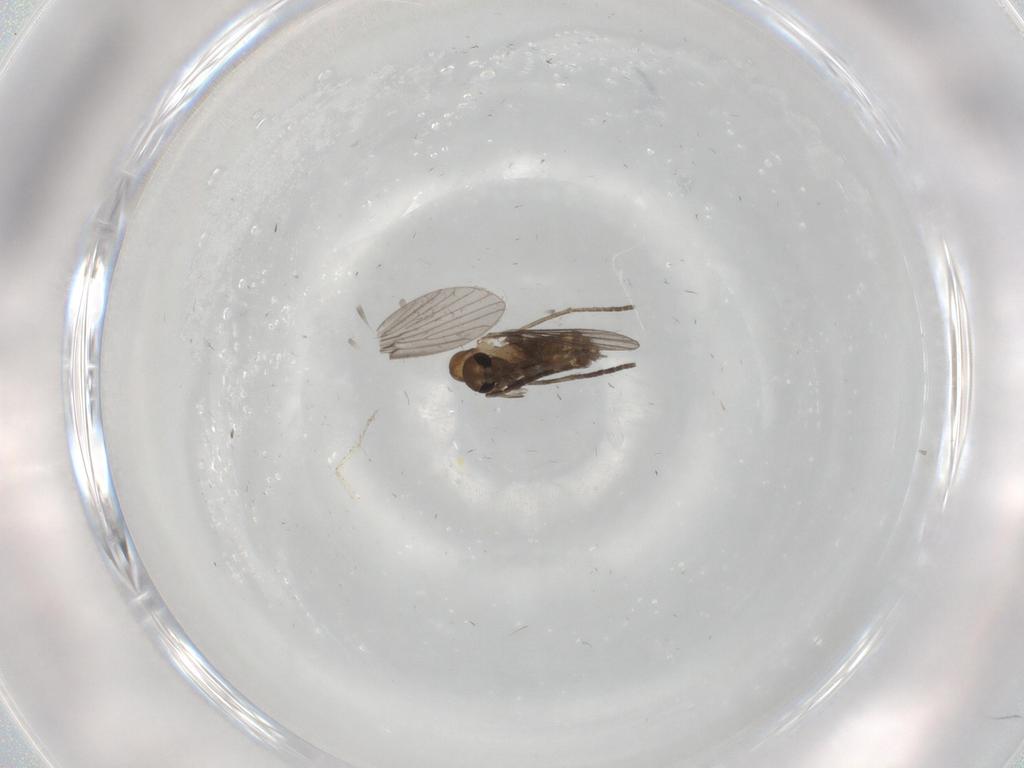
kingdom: Animalia
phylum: Arthropoda
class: Insecta
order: Diptera
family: Psychodidae
